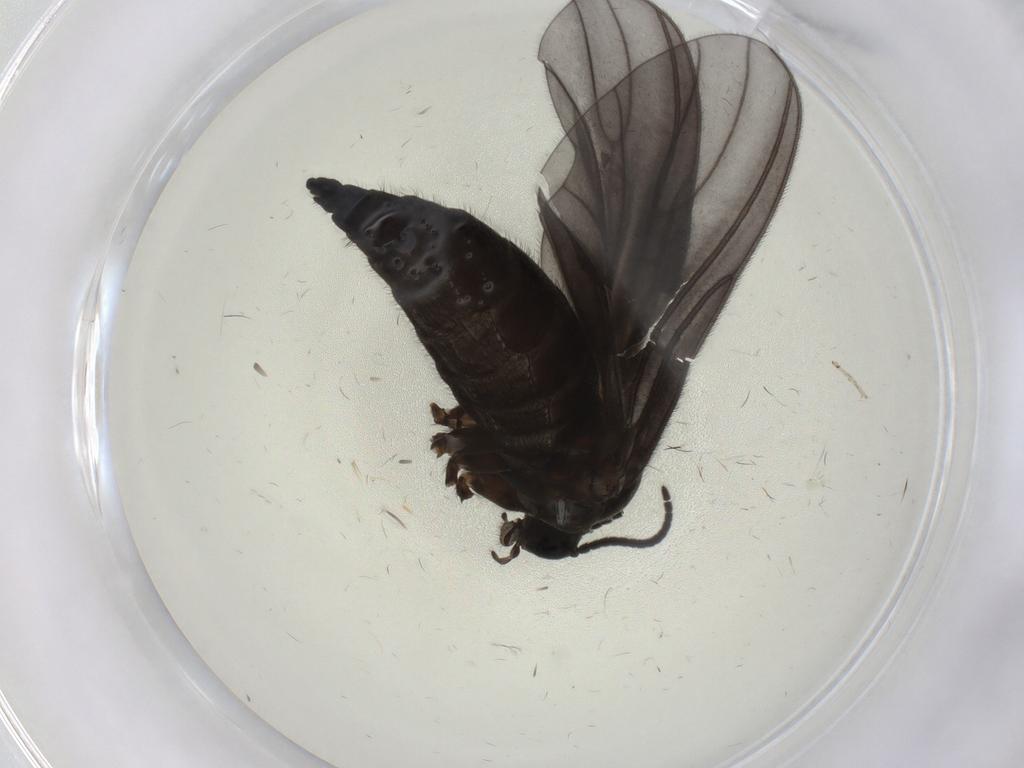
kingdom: Animalia
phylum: Arthropoda
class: Insecta
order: Diptera
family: Sciaridae
